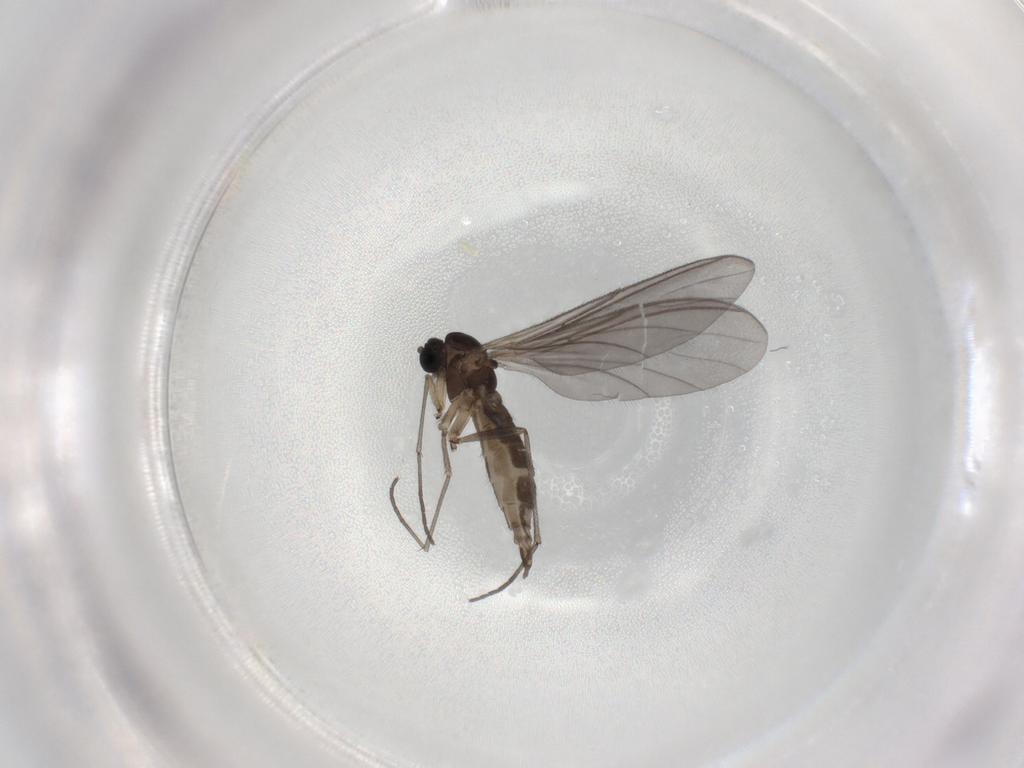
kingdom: Animalia
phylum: Arthropoda
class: Insecta
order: Diptera
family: Sciaridae
